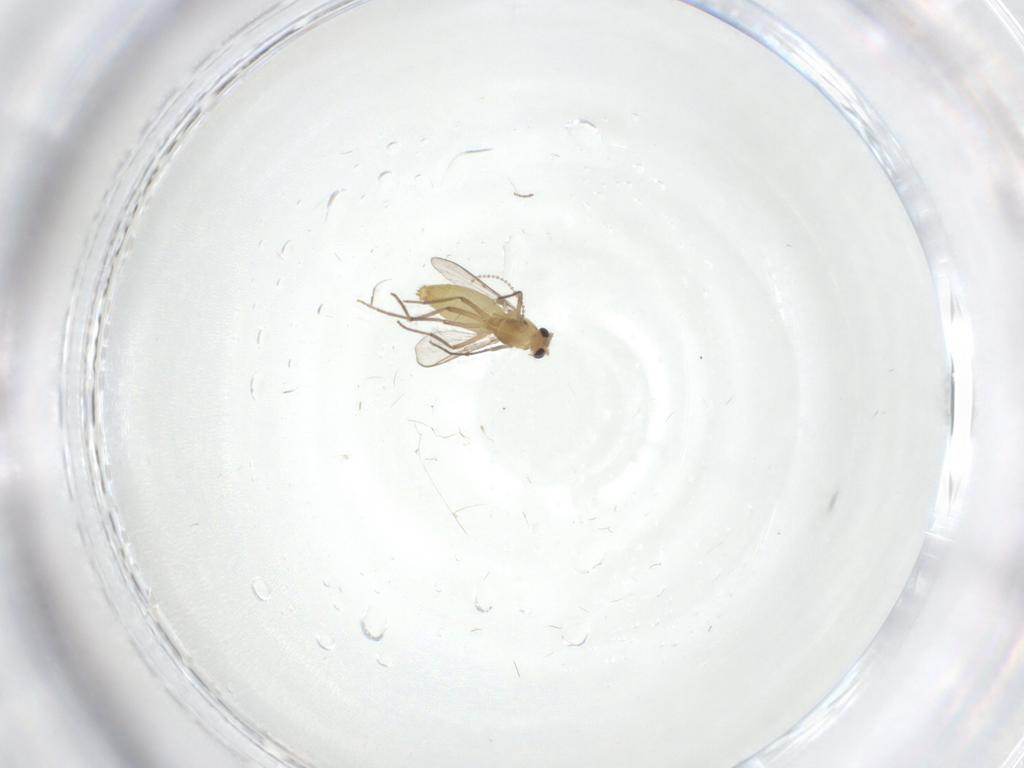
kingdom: Animalia
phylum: Arthropoda
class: Insecta
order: Diptera
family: Chironomidae
